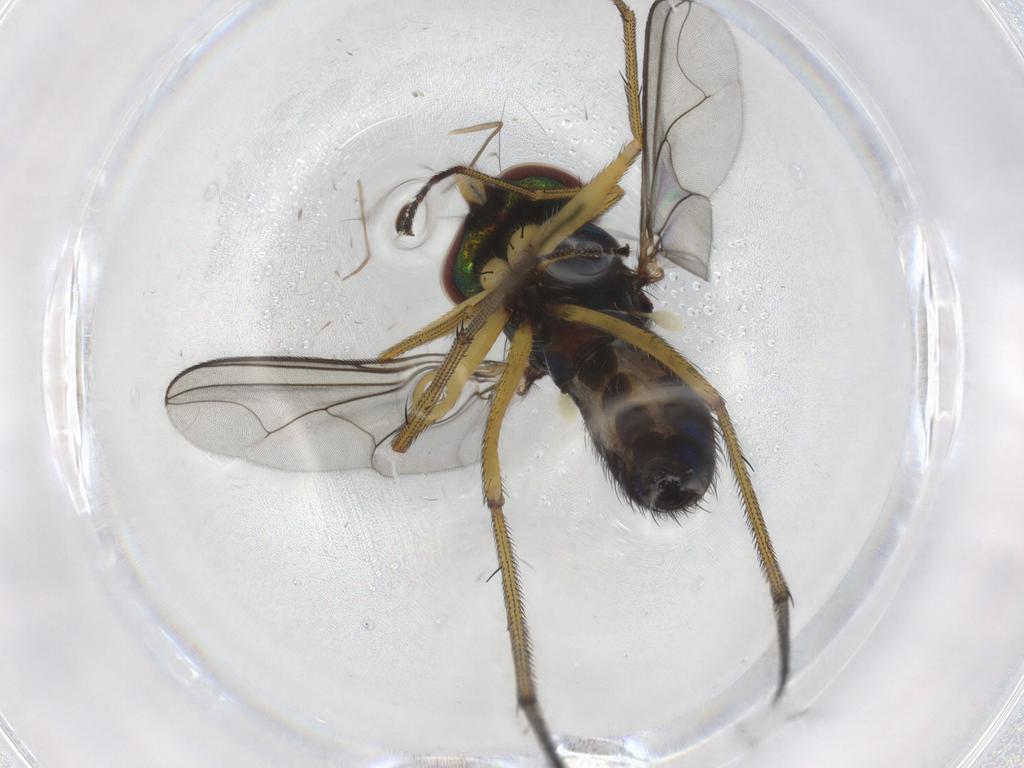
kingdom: Animalia
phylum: Arthropoda
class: Insecta
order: Diptera
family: Dolichopodidae
